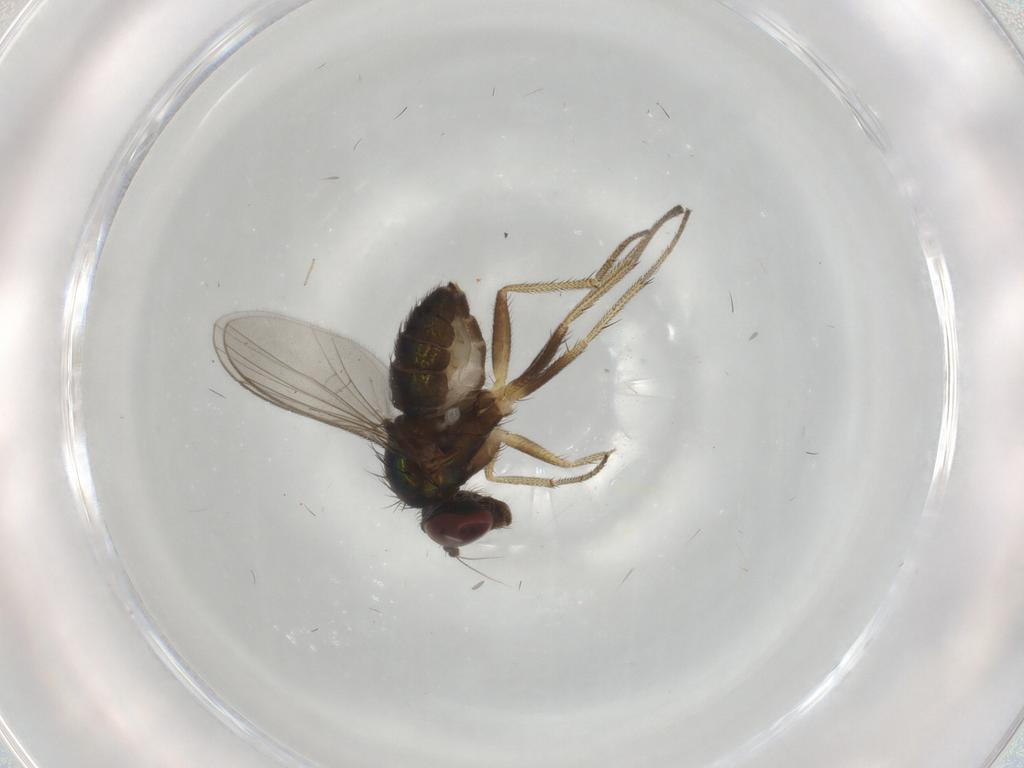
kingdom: Animalia
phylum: Arthropoda
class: Insecta
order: Diptera
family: Dolichopodidae
